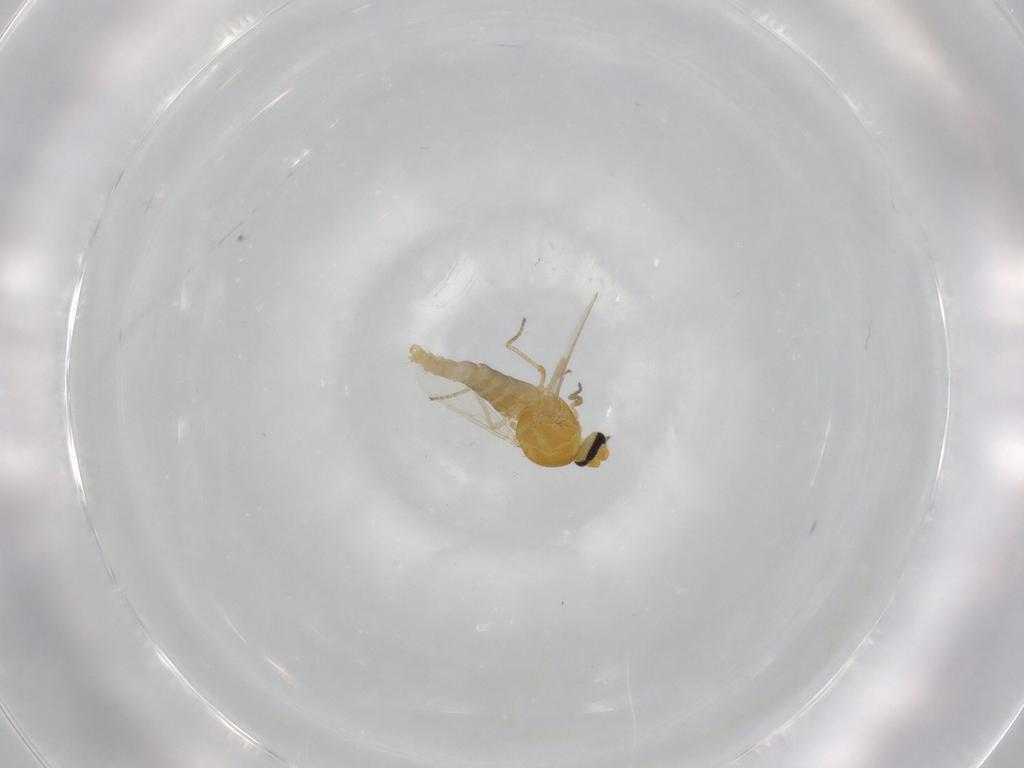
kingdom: Animalia
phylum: Arthropoda
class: Insecta
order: Diptera
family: Ceratopogonidae
